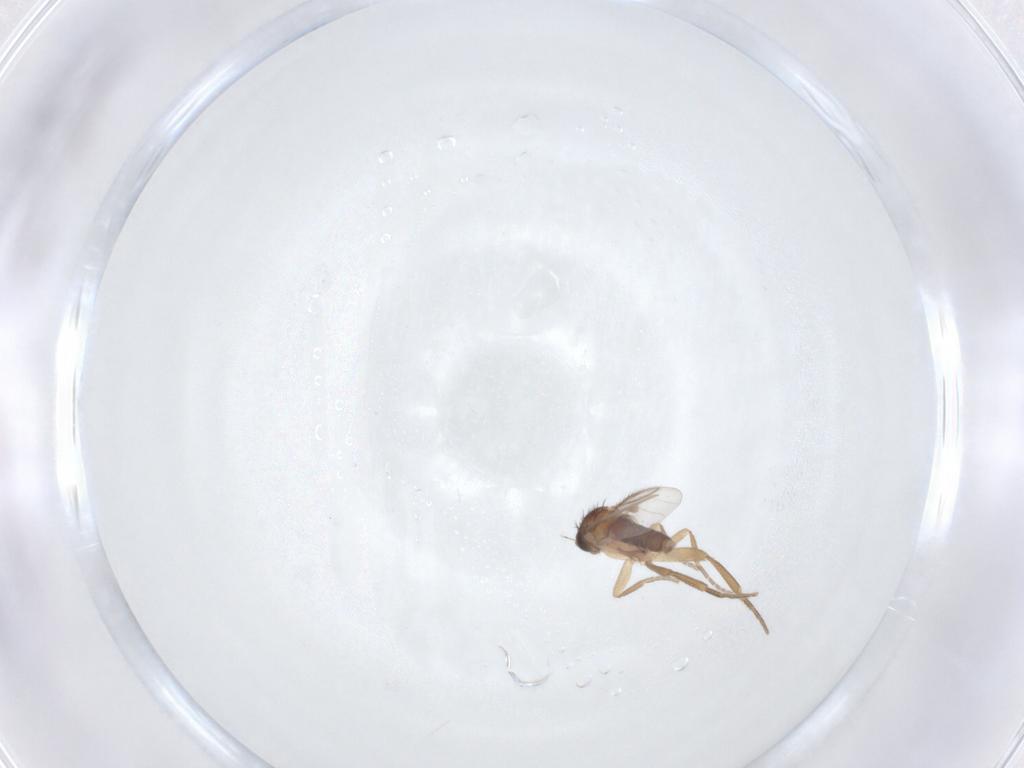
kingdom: Animalia
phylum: Arthropoda
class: Insecta
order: Diptera
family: Phoridae
